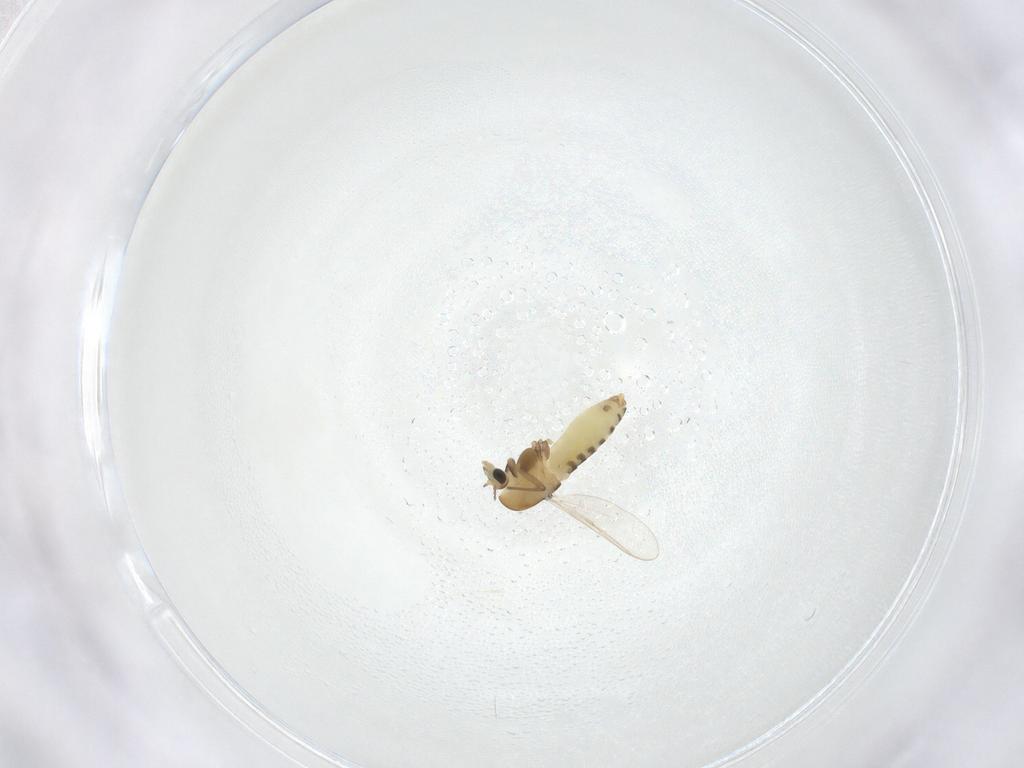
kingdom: Animalia
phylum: Arthropoda
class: Insecta
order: Diptera
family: Chironomidae
